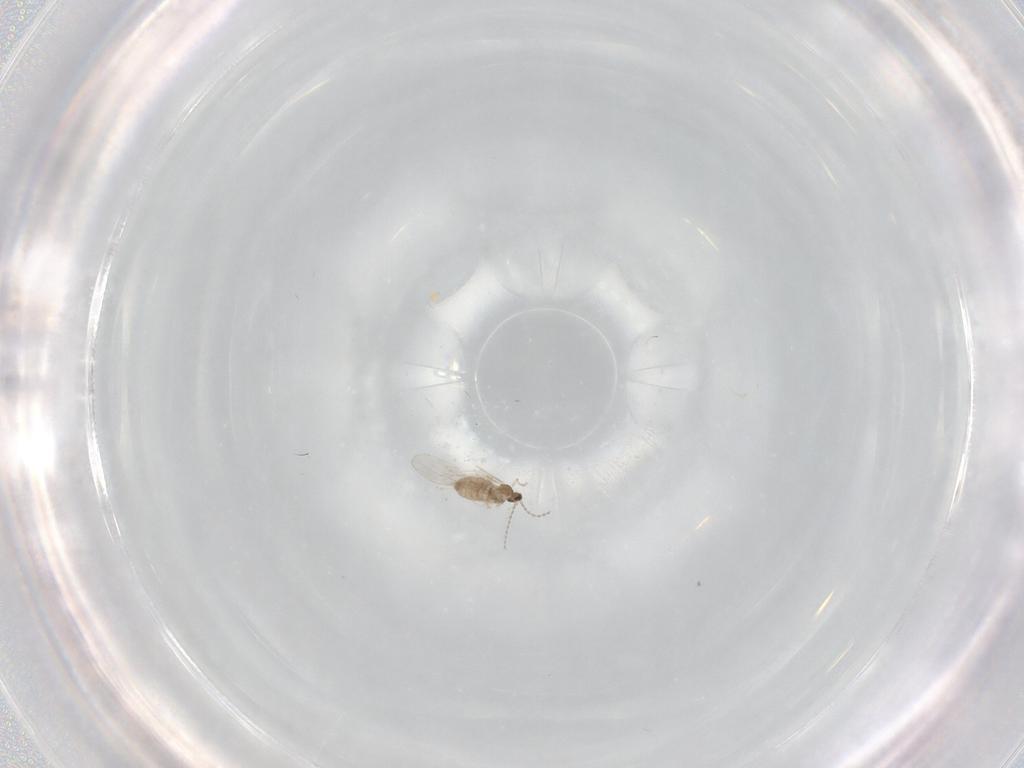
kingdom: Animalia
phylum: Arthropoda
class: Insecta
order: Diptera
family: Cecidomyiidae
